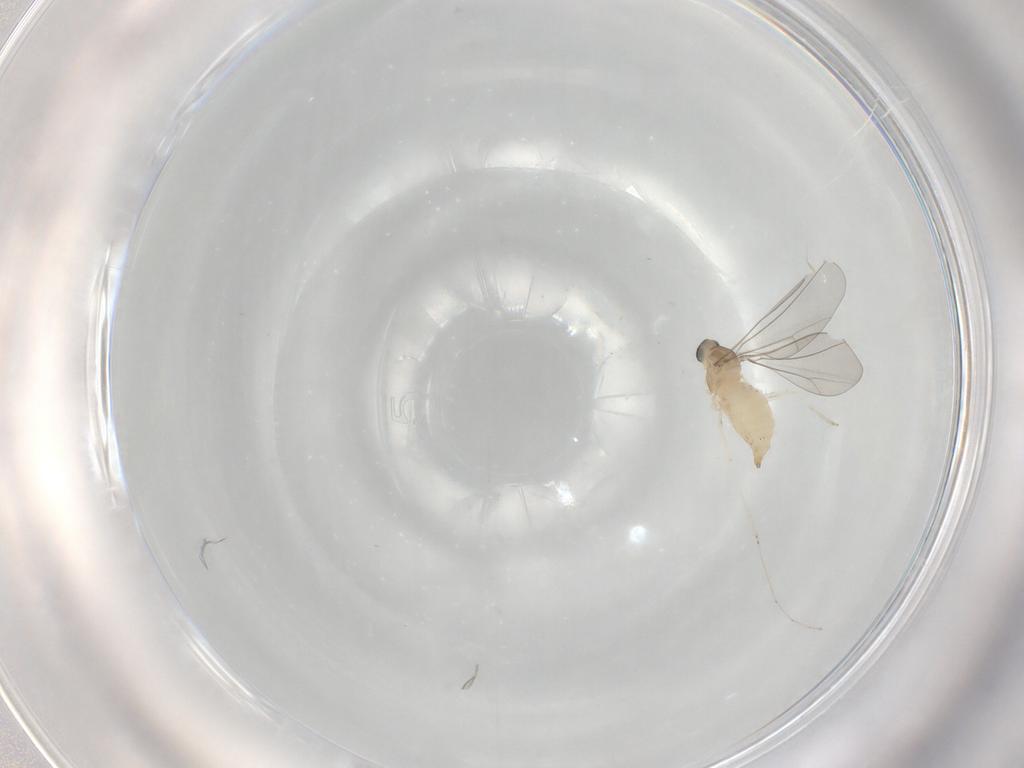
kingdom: Animalia
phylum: Arthropoda
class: Insecta
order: Diptera
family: Cecidomyiidae
